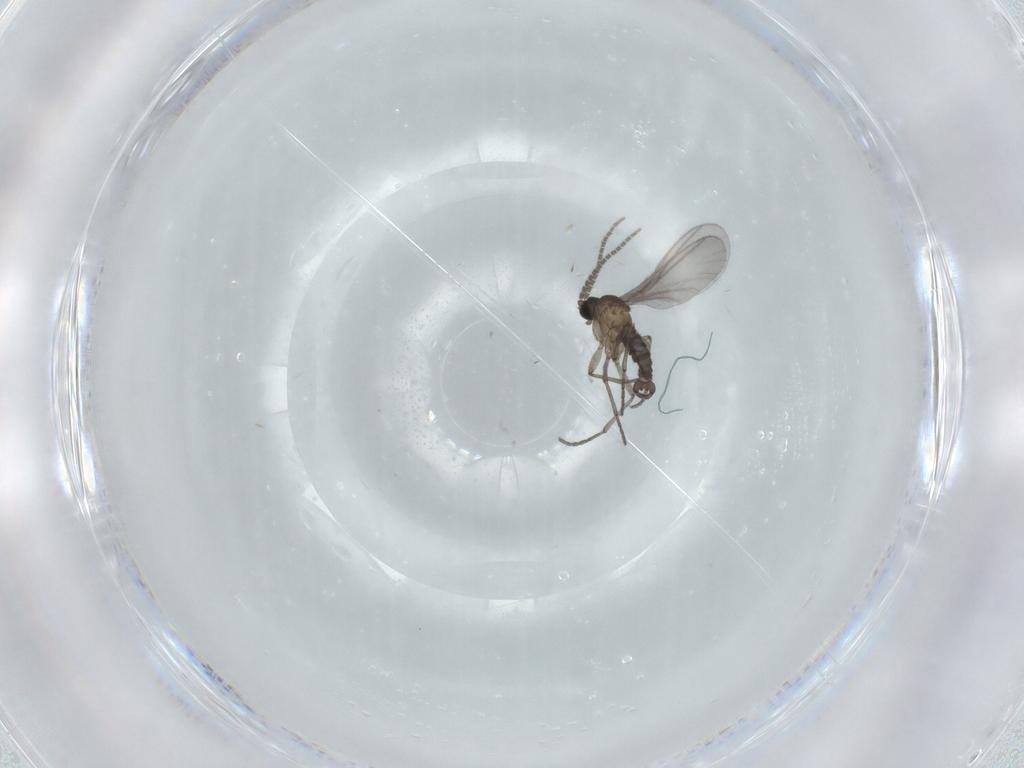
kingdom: Animalia
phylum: Arthropoda
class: Insecta
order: Diptera
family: Sciaridae
